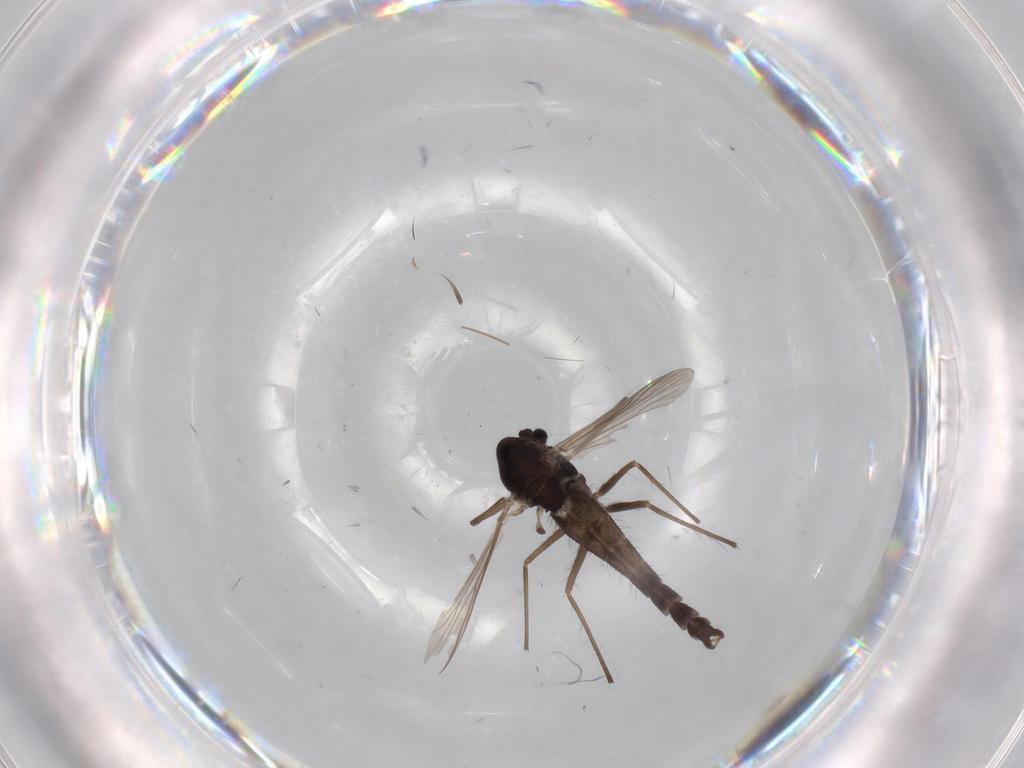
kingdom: Animalia
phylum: Arthropoda
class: Insecta
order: Diptera
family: Chironomidae
